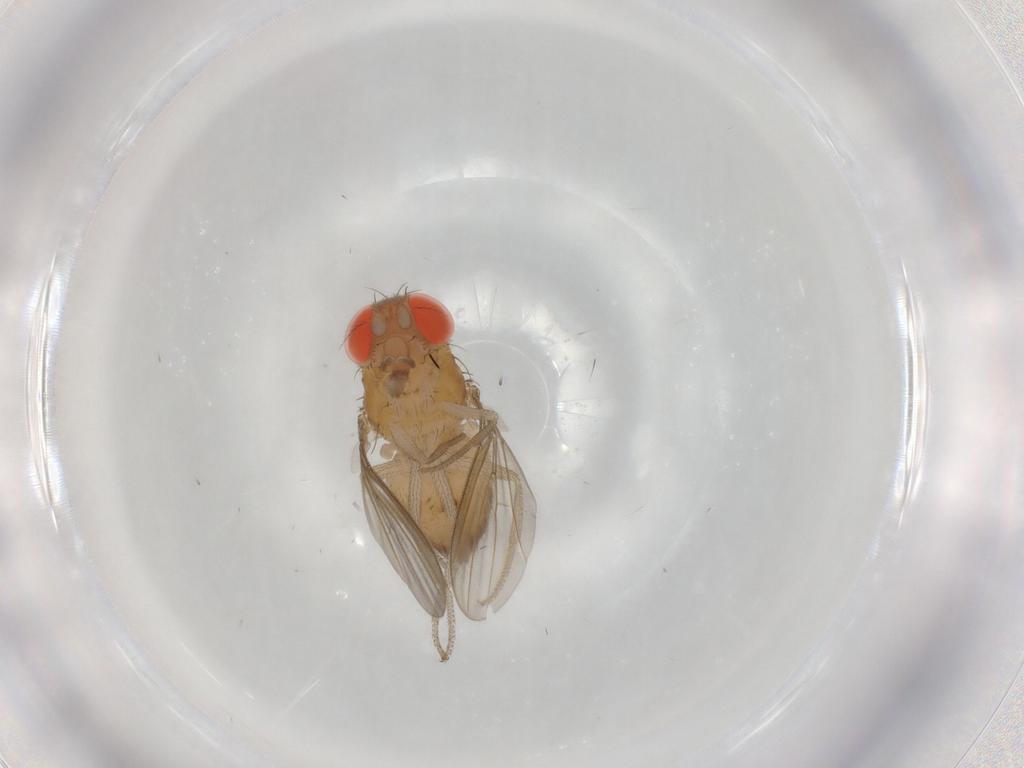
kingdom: Animalia
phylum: Arthropoda
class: Insecta
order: Diptera
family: Drosophilidae
